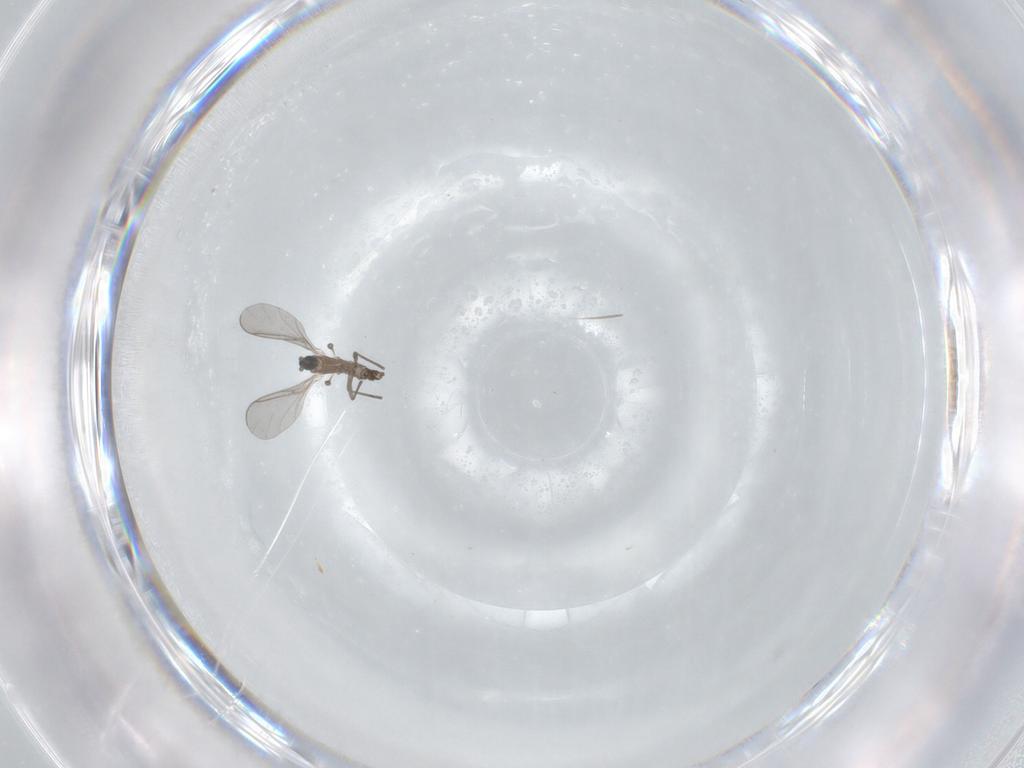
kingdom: Animalia
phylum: Arthropoda
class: Insecta
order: Diptera
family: Sciaridae
